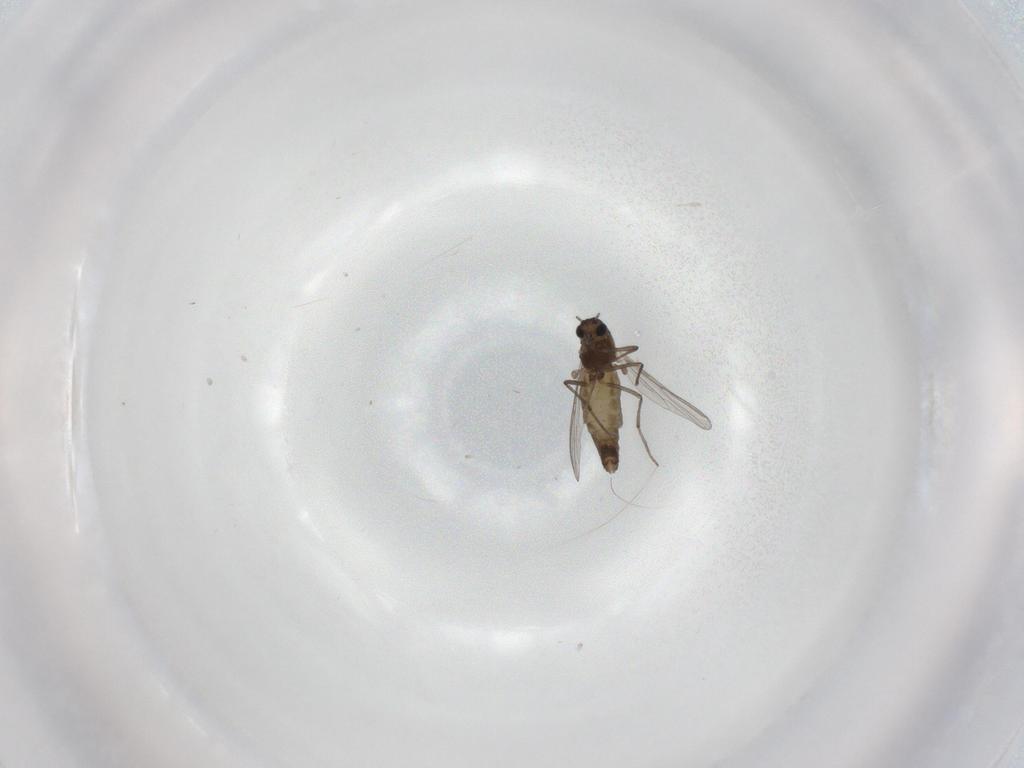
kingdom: Animalia
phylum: Arthropoda
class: Insecta
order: Diptera
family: Chironomidae
